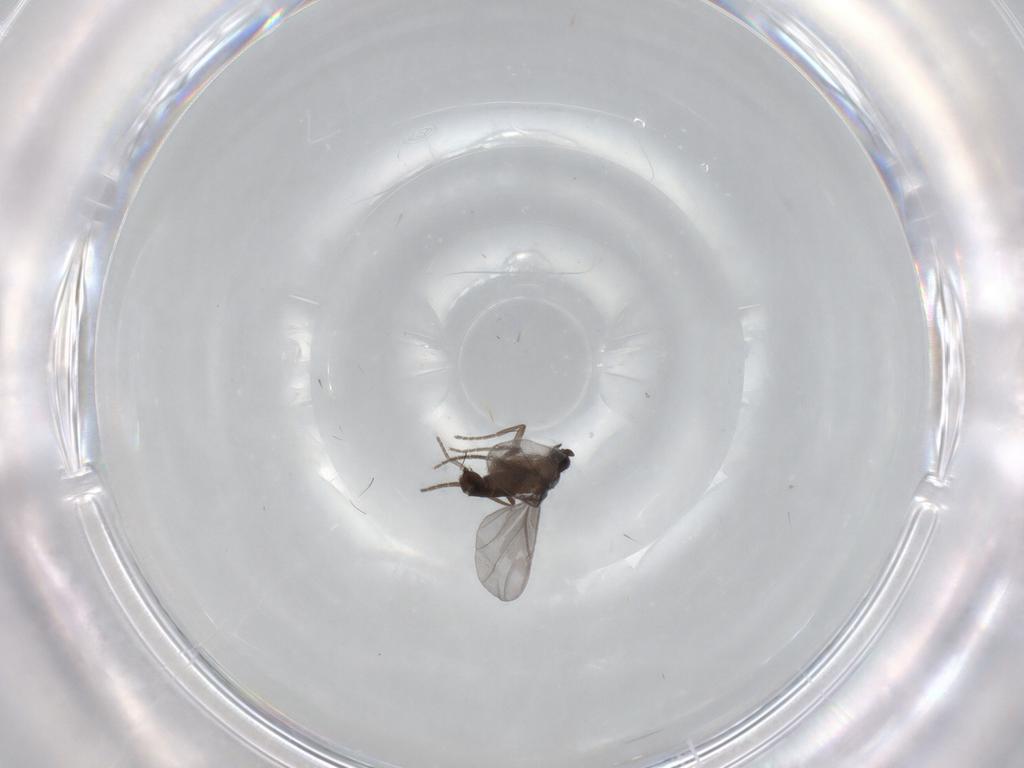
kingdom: Animalia
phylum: Arthropoda
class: Insecta
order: Diptera
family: Phoridae
